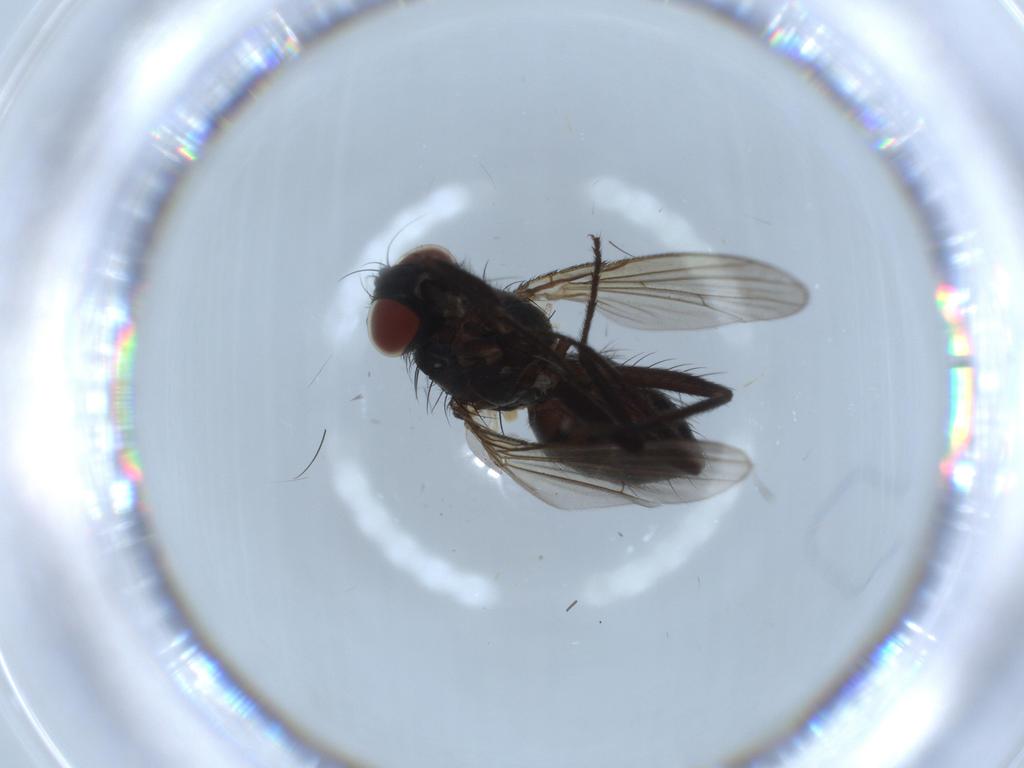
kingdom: Animalia
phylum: Arthropoda
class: Insecta
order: Diptera
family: Muscidae
